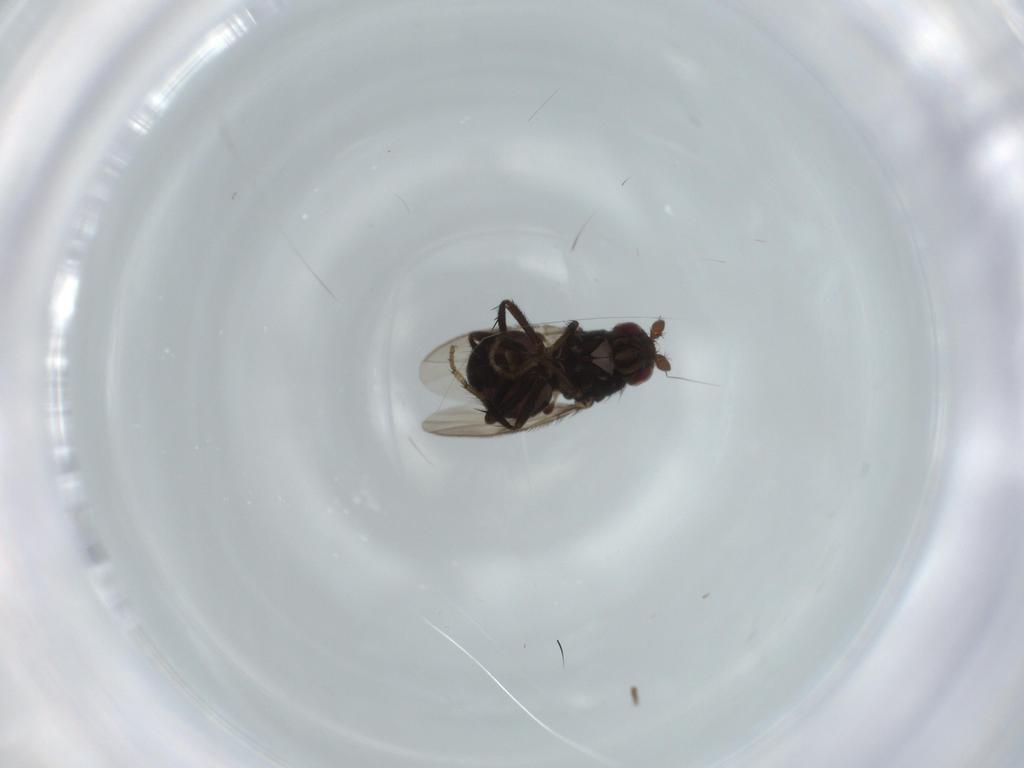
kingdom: Animalia
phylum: Arthropoda
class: Insecta
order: Diptera
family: Sphaeroceridae
